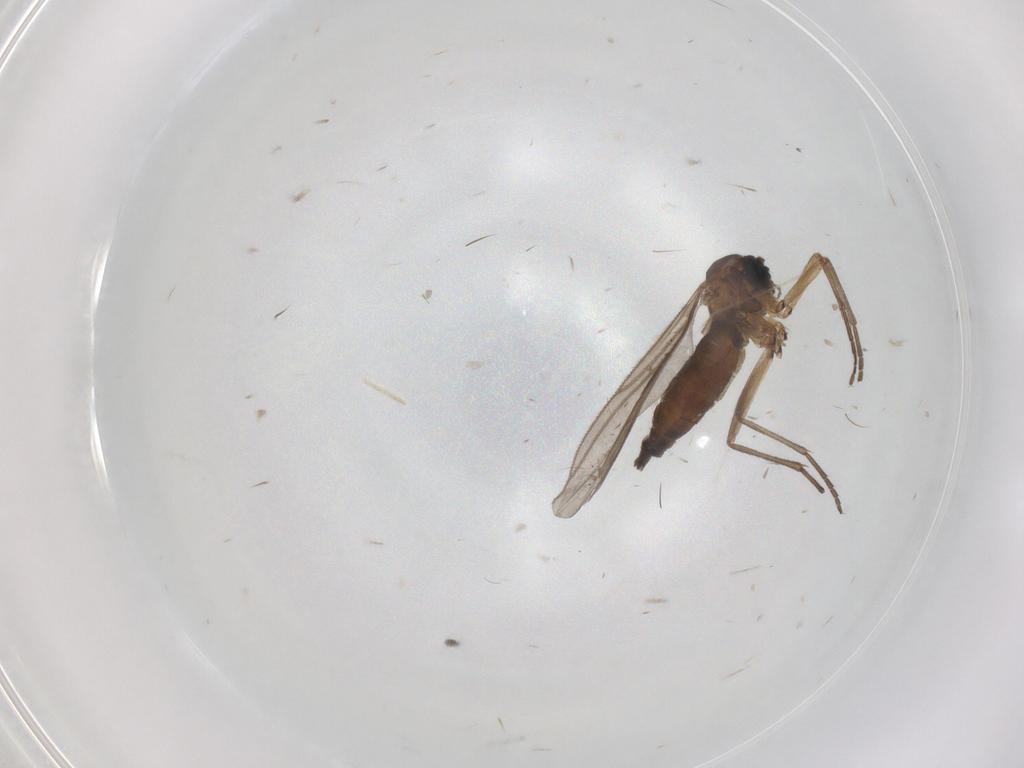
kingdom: Animalia
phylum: Arthropoda
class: Insecta
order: Diptera
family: Sciaridae
